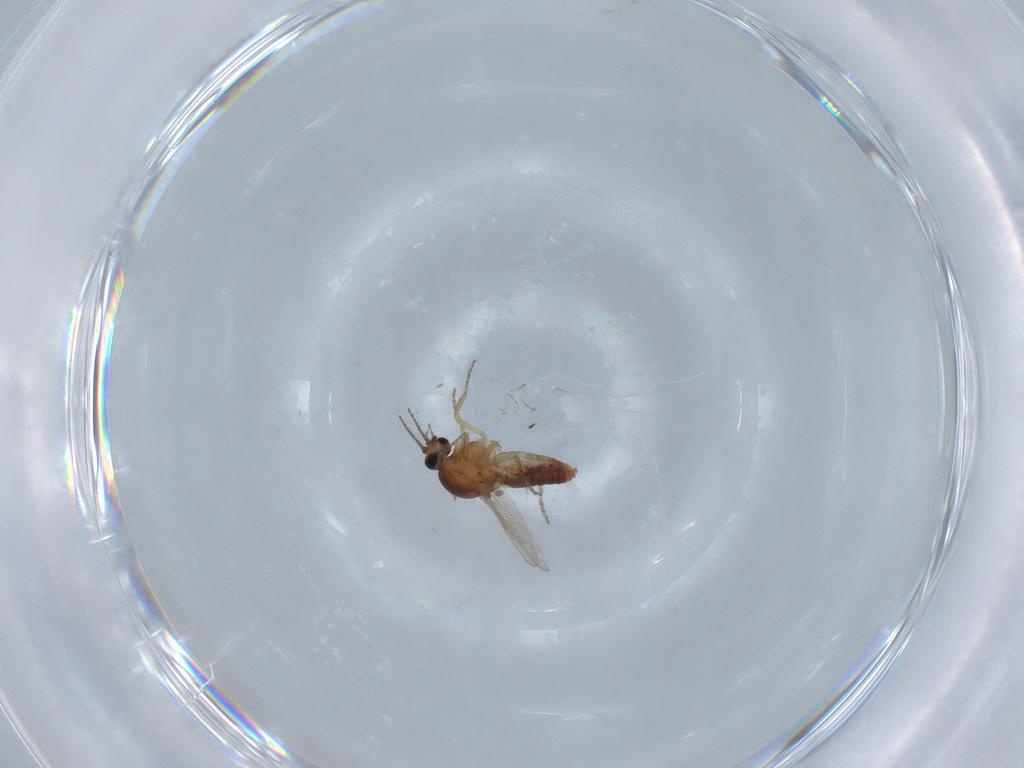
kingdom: Animalia
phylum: Arthropoda
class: Insecta
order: Diptera
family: Ceratopogonidae
